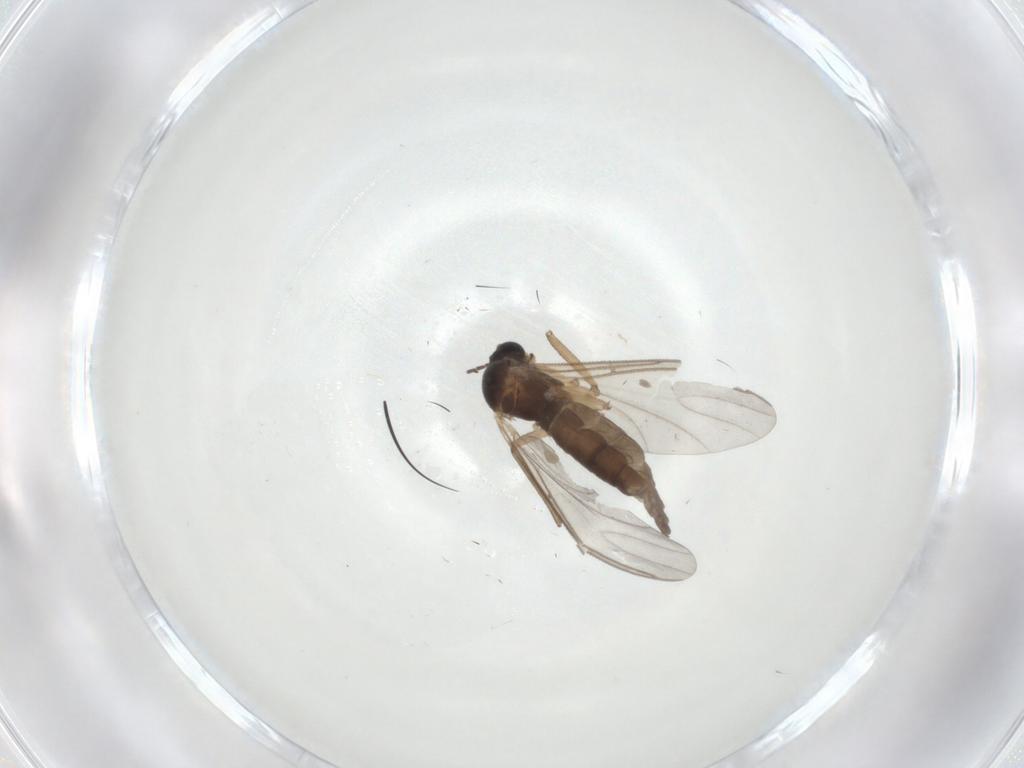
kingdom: Animalia
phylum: Arthropoda
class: Insecta
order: Diptera
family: Sciaridae
